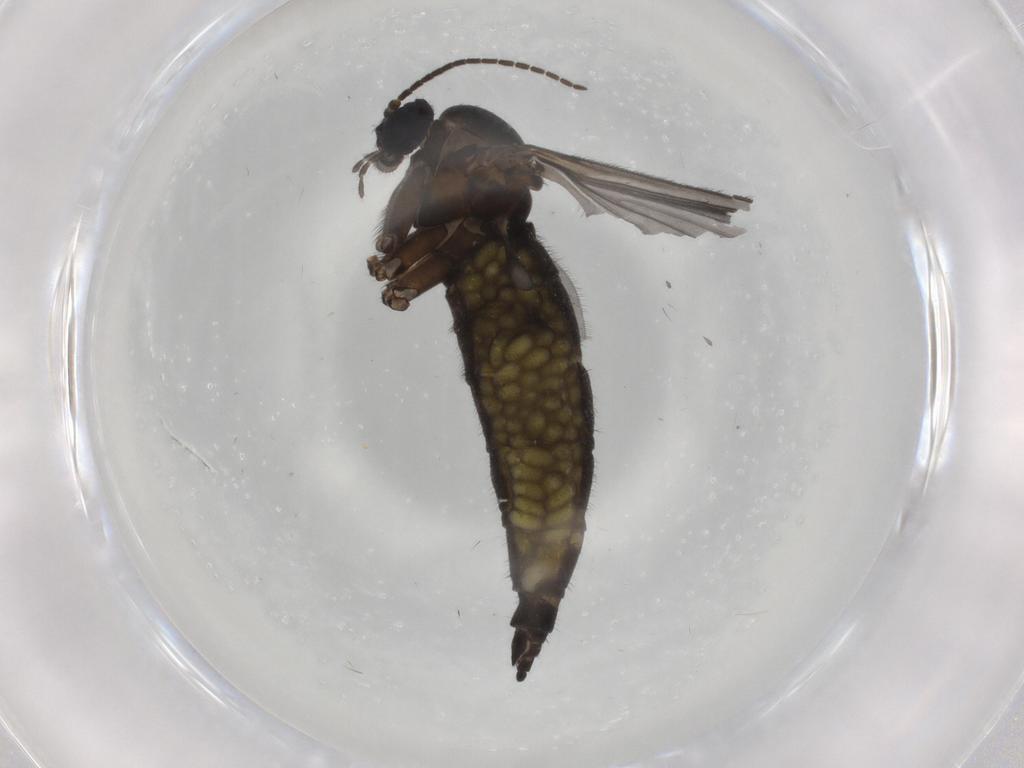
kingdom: Animalia
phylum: Arthropoda
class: Insecta
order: Diptera
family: Sciaridae
